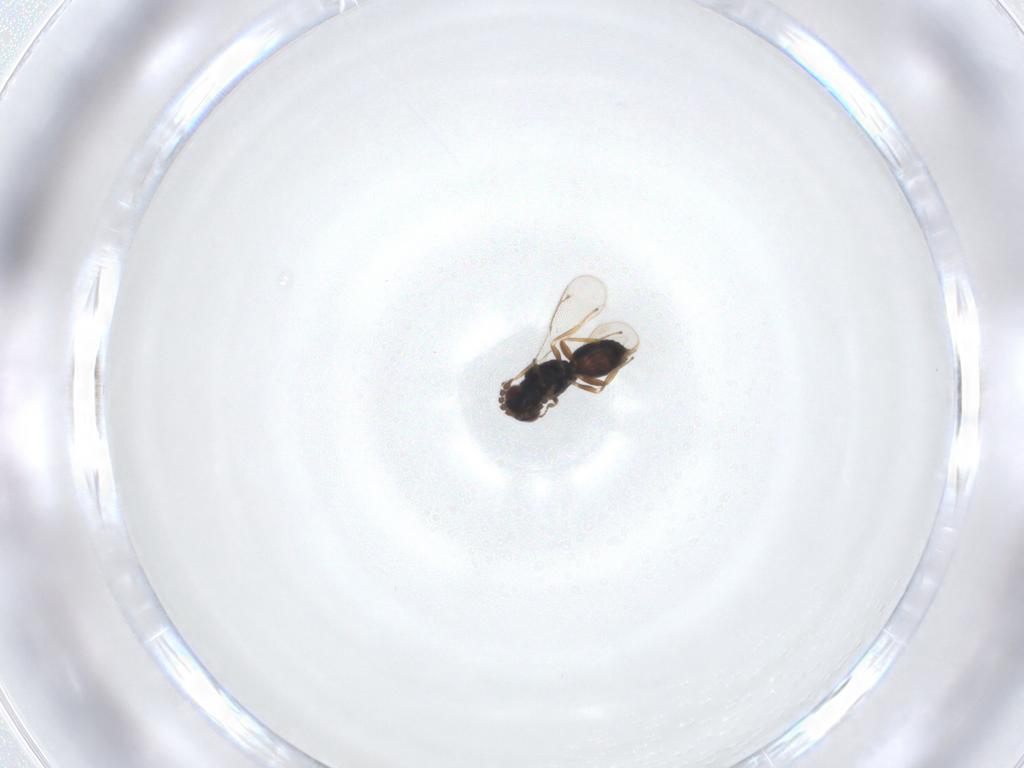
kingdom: Animalia
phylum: Arthropoda
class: Insecta
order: Hymenoptera
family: Eulophidae
